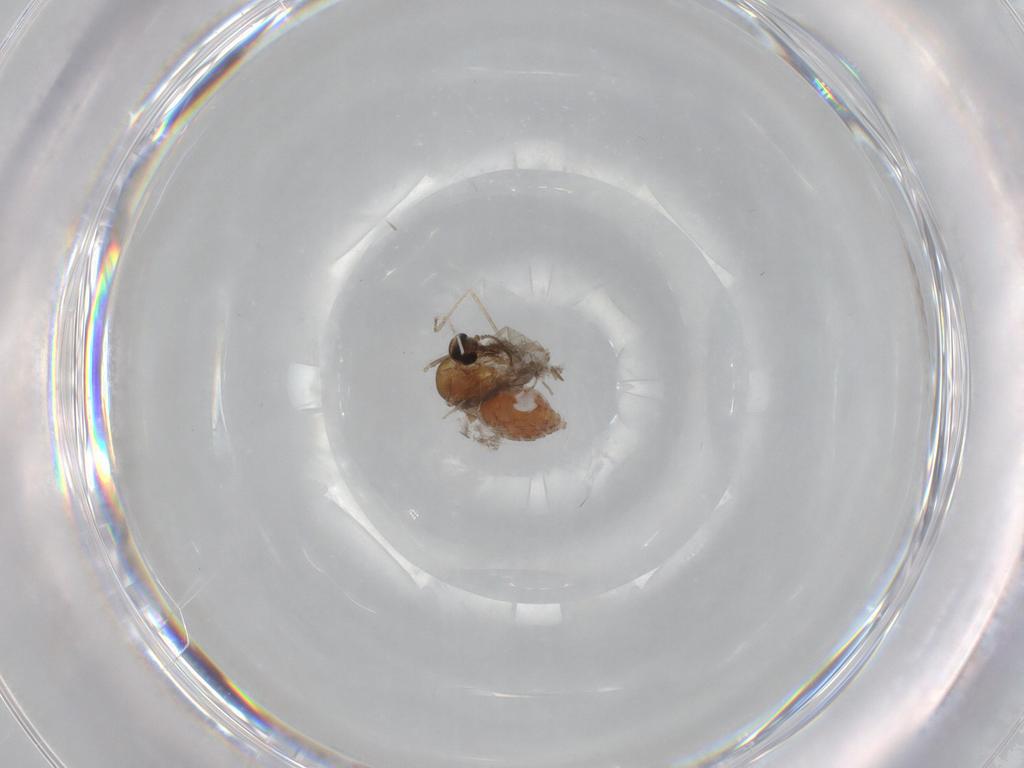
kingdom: Animalia
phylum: Arthropoda
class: Insecta
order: Diptera
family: Ceratopogonidae
